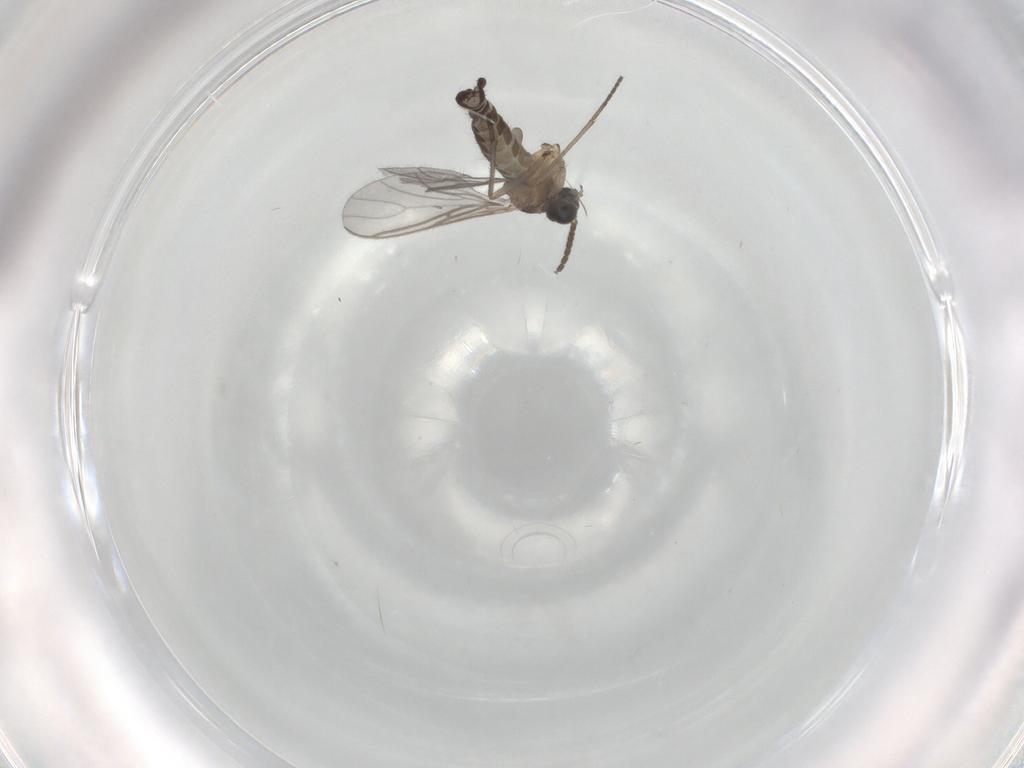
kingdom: Animalia
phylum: Arthropoda
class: Insecta
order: Diptera
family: Sciaridae
